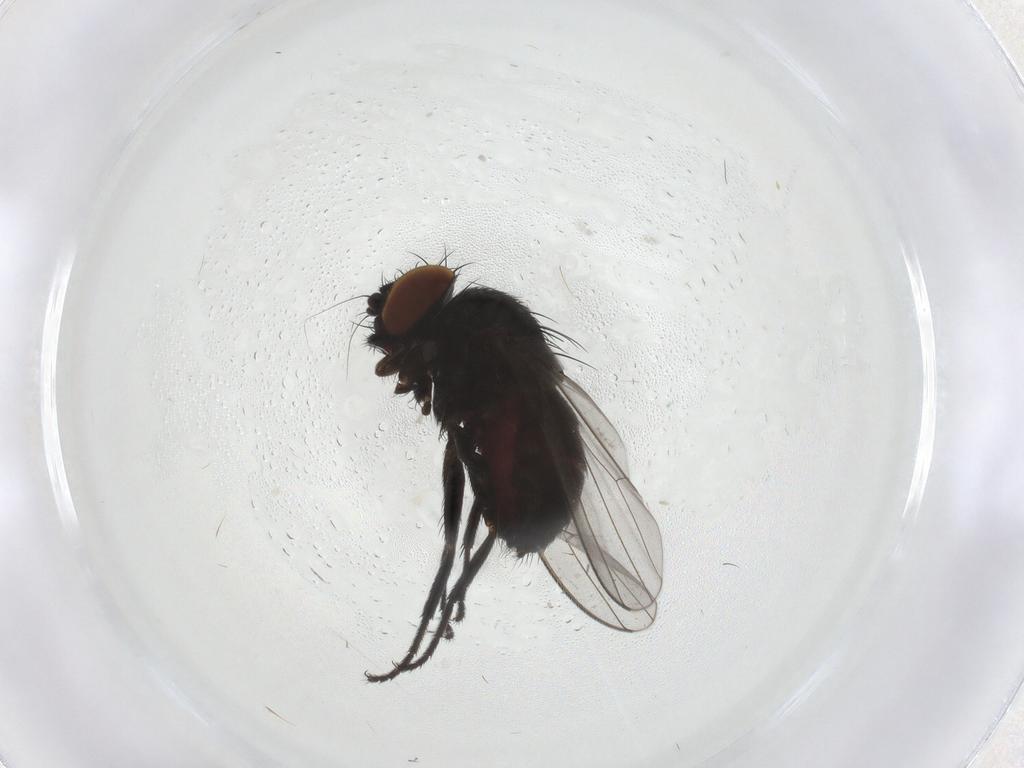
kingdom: Animalia
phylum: Arthropoda
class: Insecta
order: Diptera
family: Milichiidae
